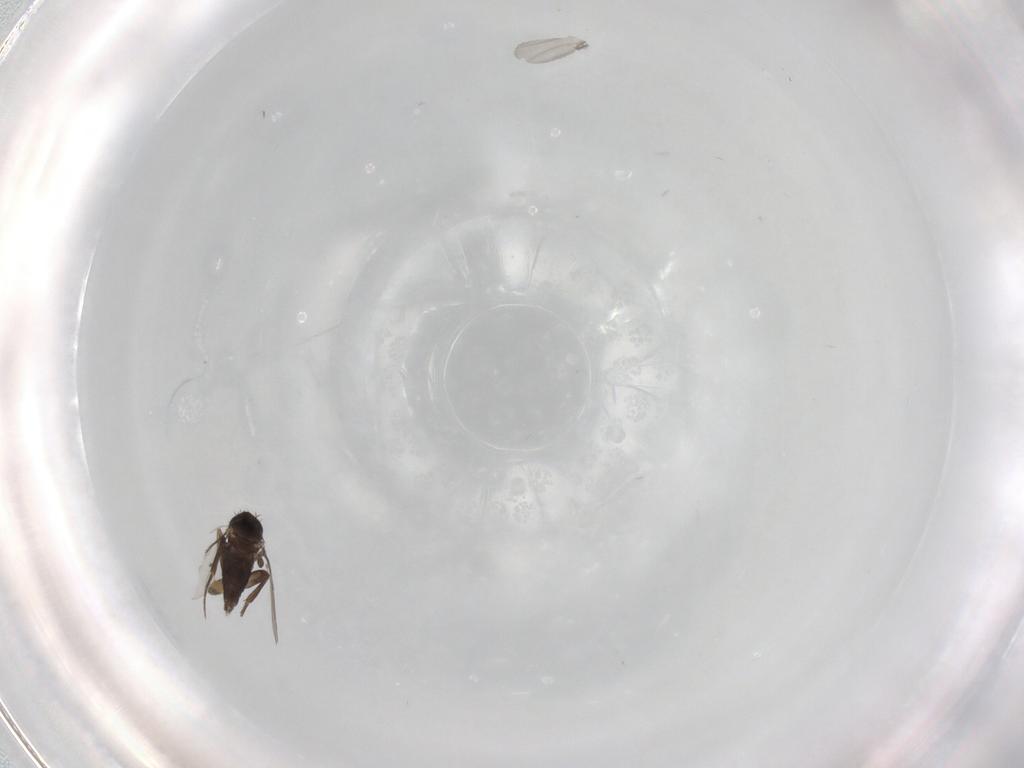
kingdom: Animalia
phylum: Arthropoda
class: Insecta
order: Diptera
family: Phoridae
